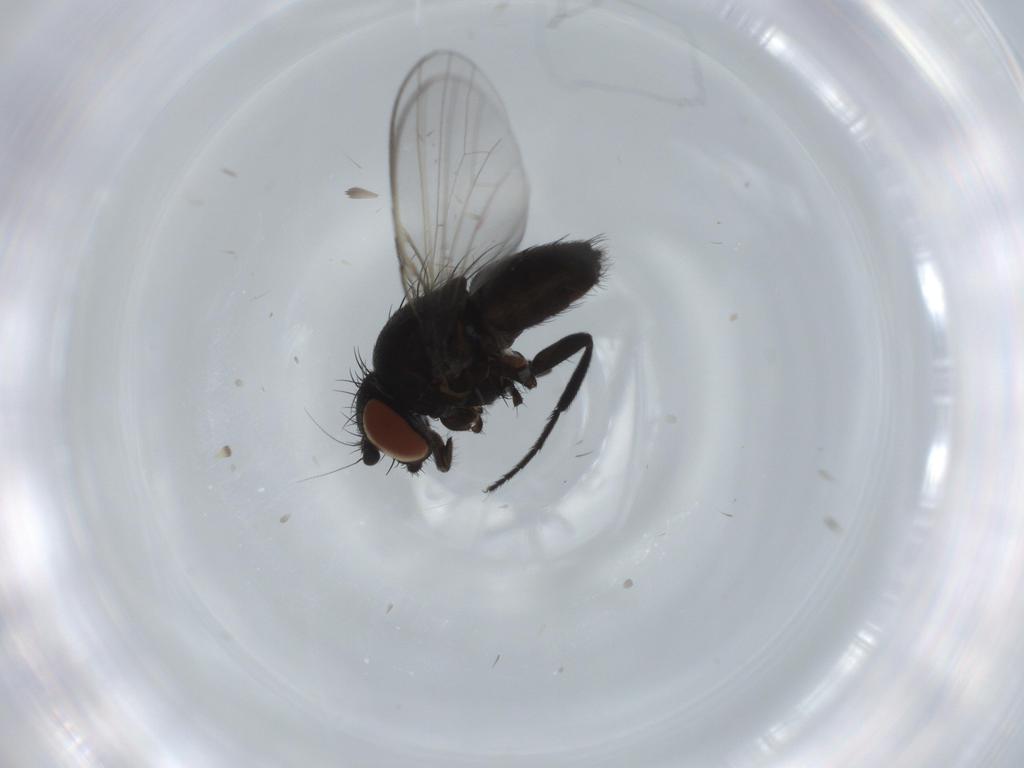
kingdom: Animalia
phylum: Arthropoda
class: Insecta
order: Diptera
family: Milichiidae
